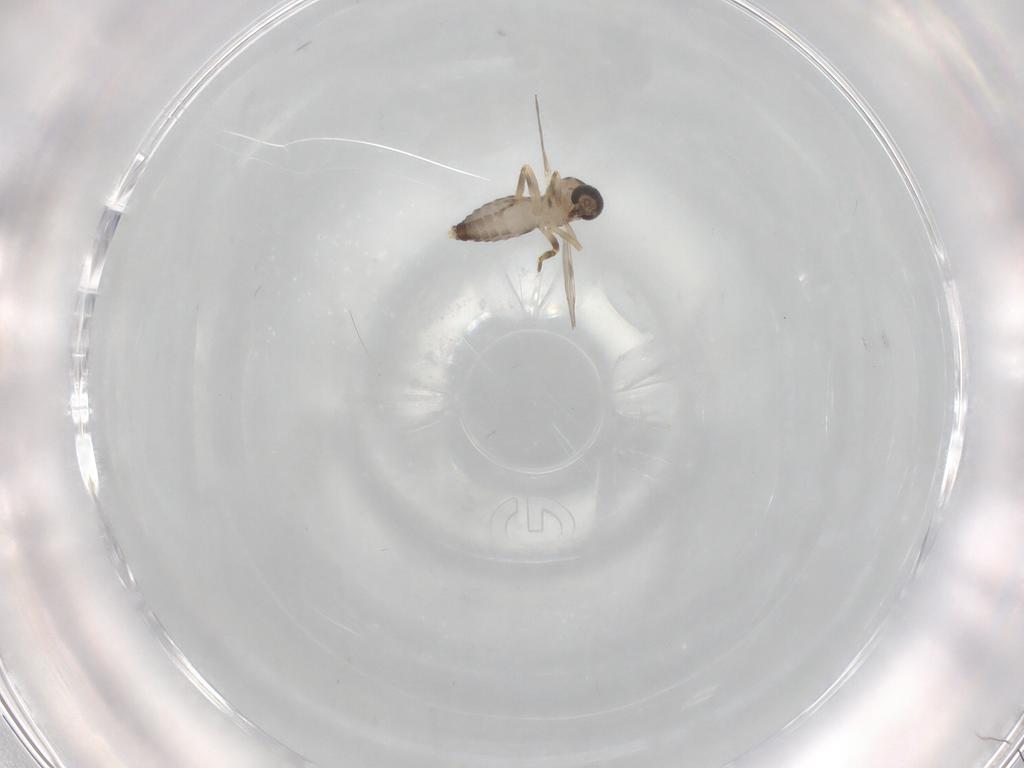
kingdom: Animalia
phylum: Arthropoda
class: Insecta
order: Diptera
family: Ceratopogonidae
